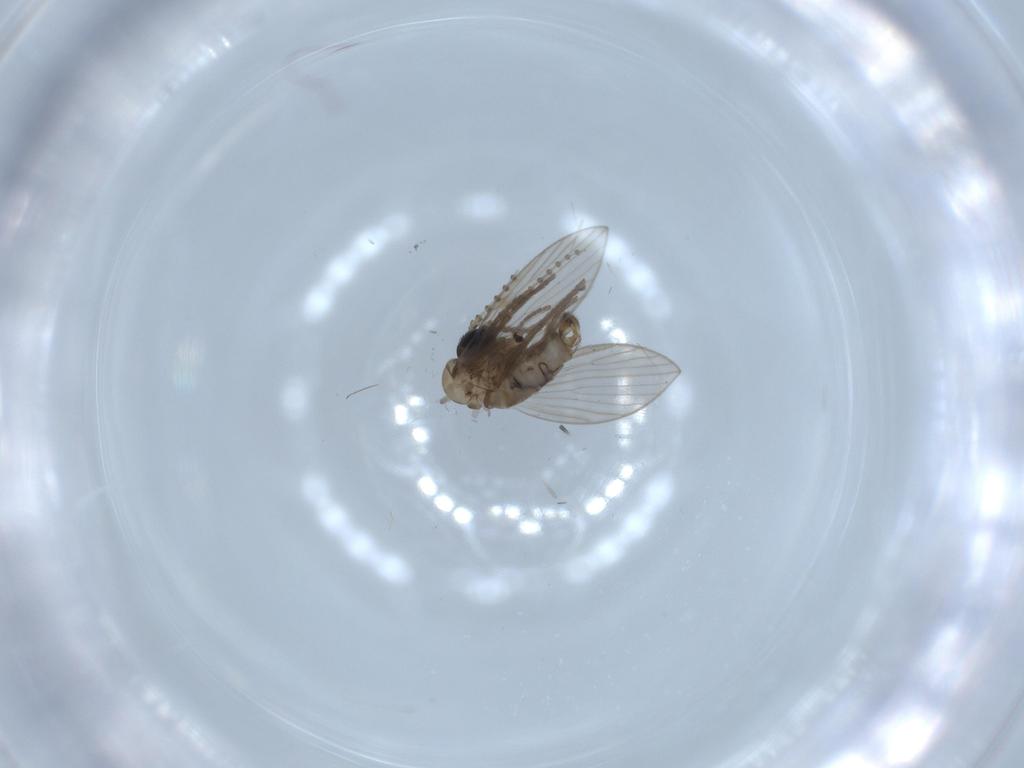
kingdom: Animalia
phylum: Arthropoda
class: Insecta
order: Diptera
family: Psychodidae
